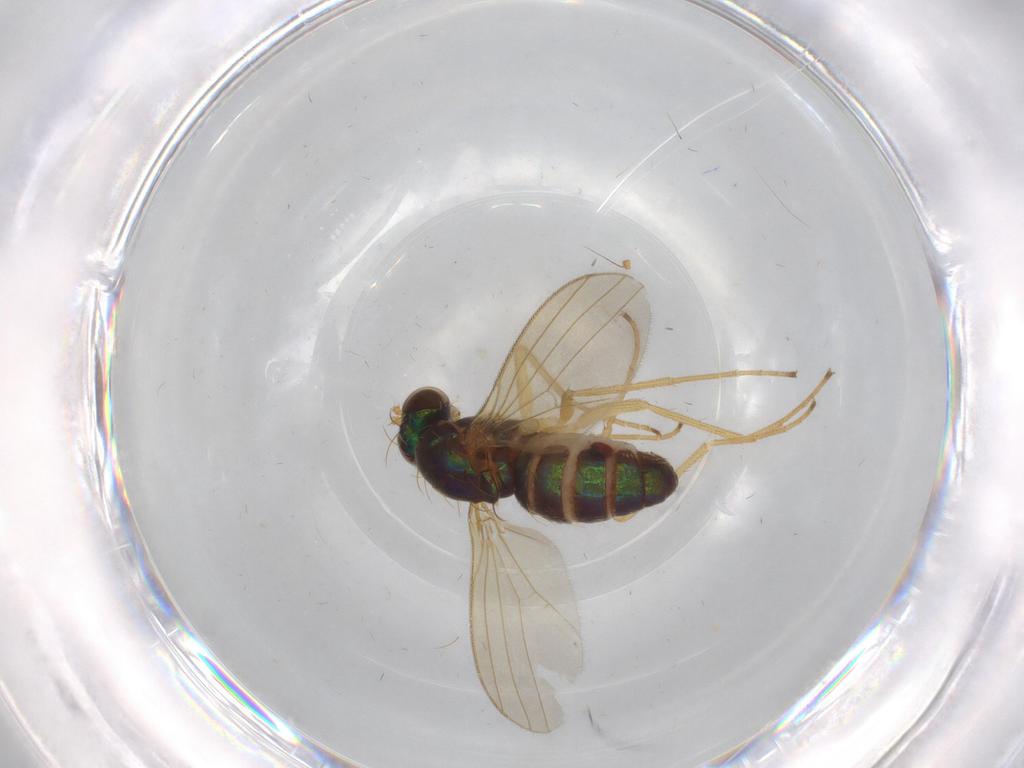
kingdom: Animalia
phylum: Arthropoda
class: Insecta
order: Diptera
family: Dolichopodidae
